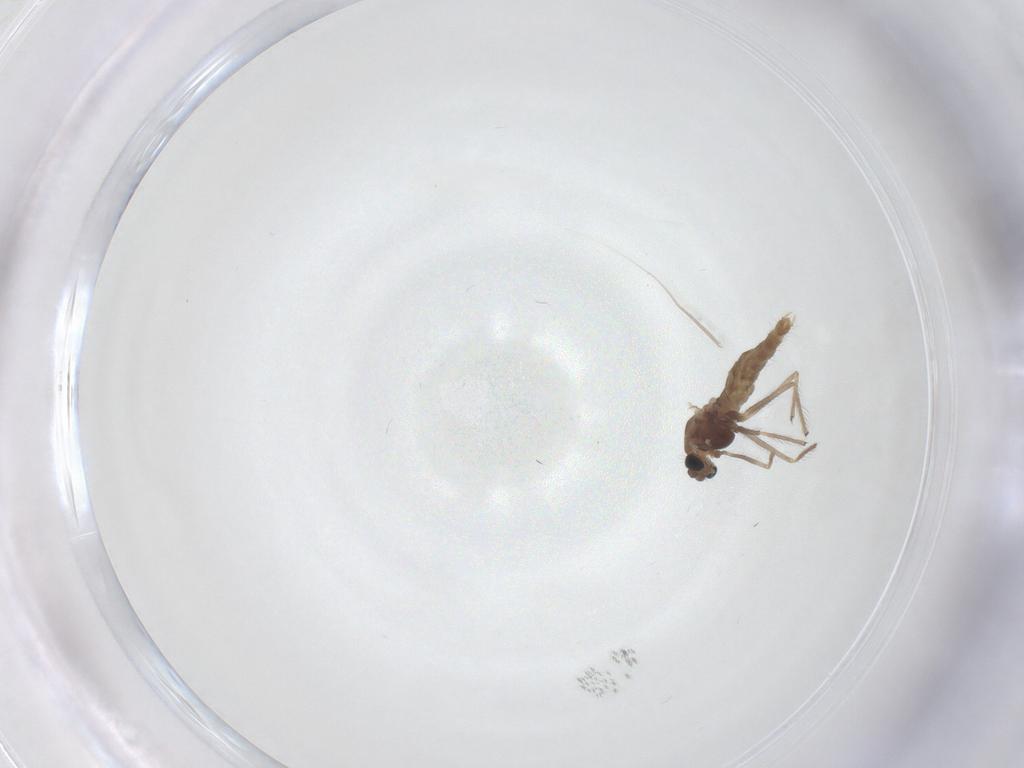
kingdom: Animalia
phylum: Arthropoda
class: Insecta
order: Diptera
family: Chironomidae
